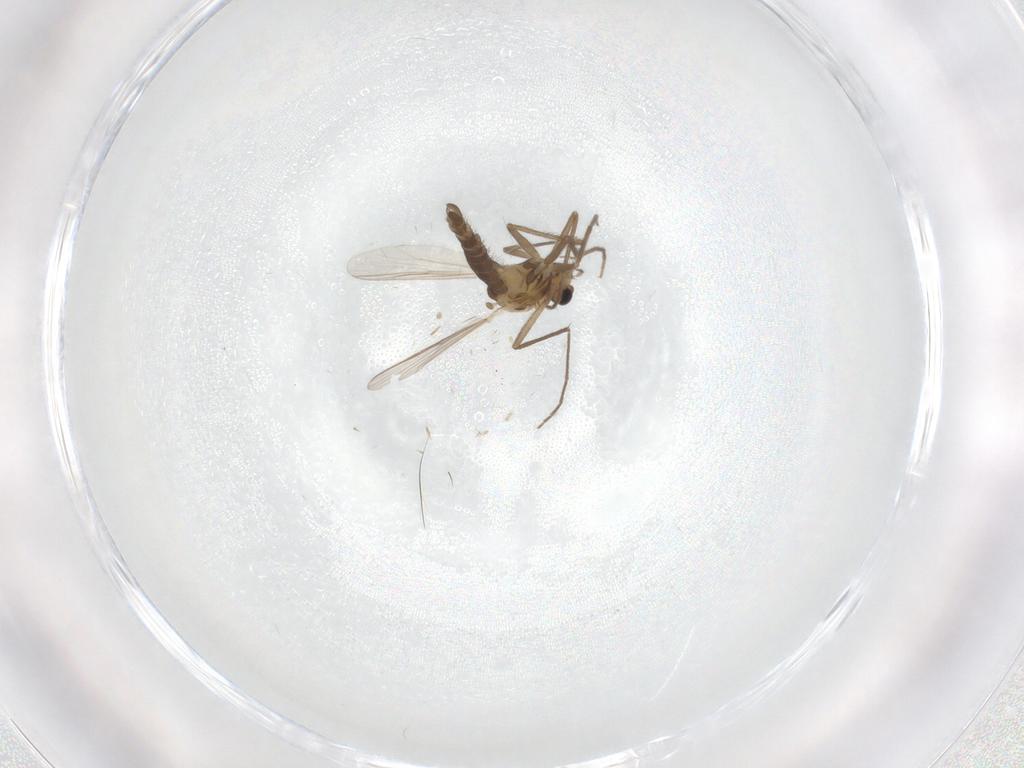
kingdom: Animalia
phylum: Arthropoda
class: Insecta
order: Diptera
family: Chironomidae
